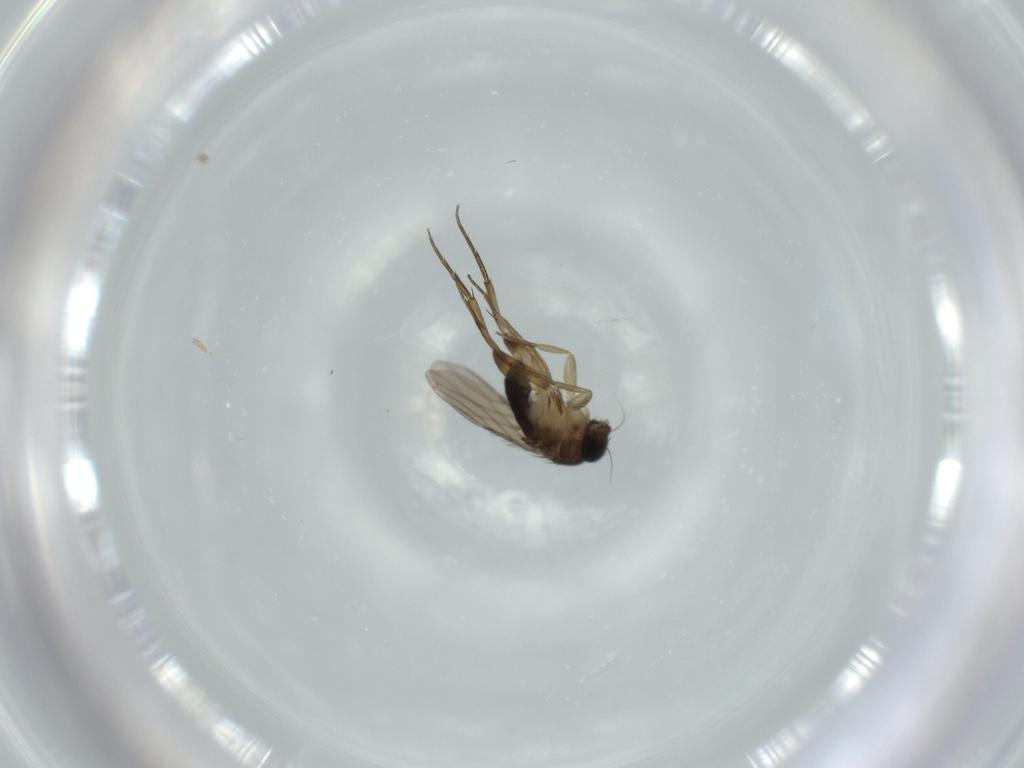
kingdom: Animalia
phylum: Arthropoda
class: Insecta
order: Diptera
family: Phoridae
